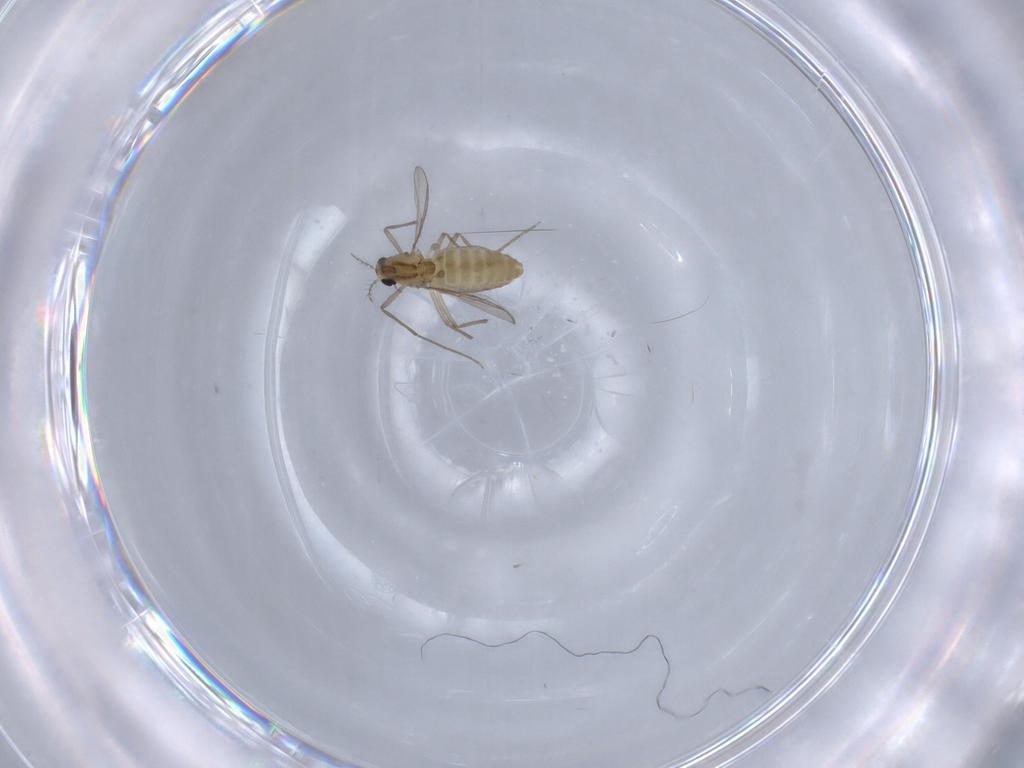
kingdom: Animalia
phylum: Arthropoda
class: Insecta
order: Diptera
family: Chironomidae
